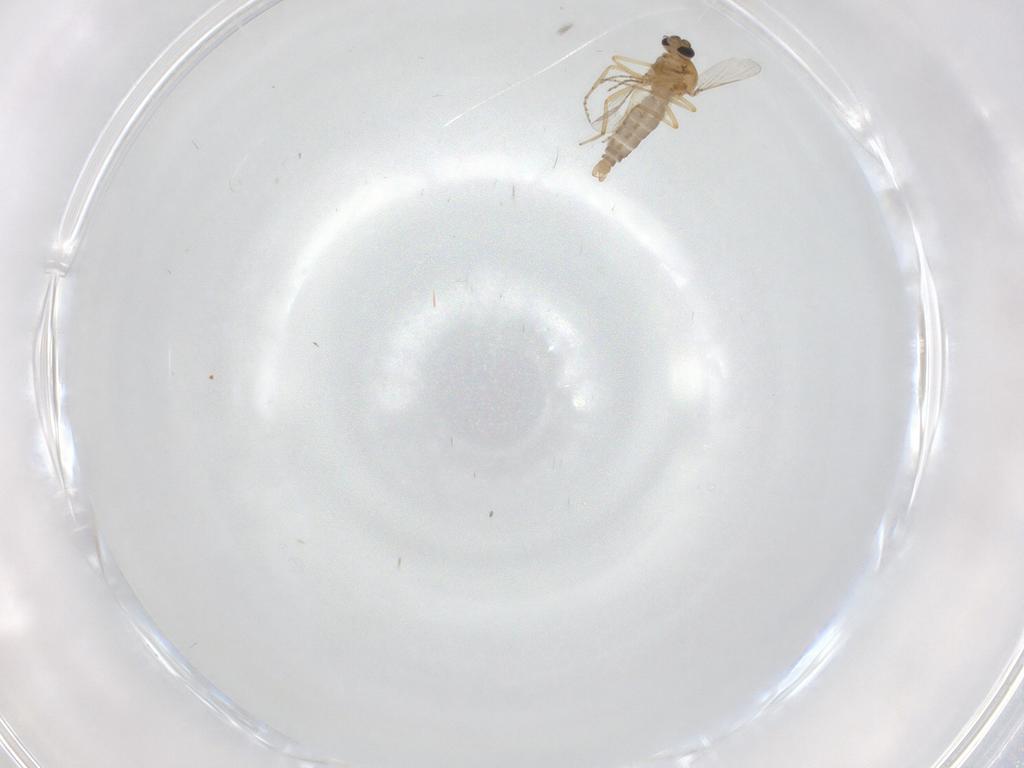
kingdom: Animalia
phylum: Arthropoda
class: Insecta
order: Diptera
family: Ceratopogonidae
